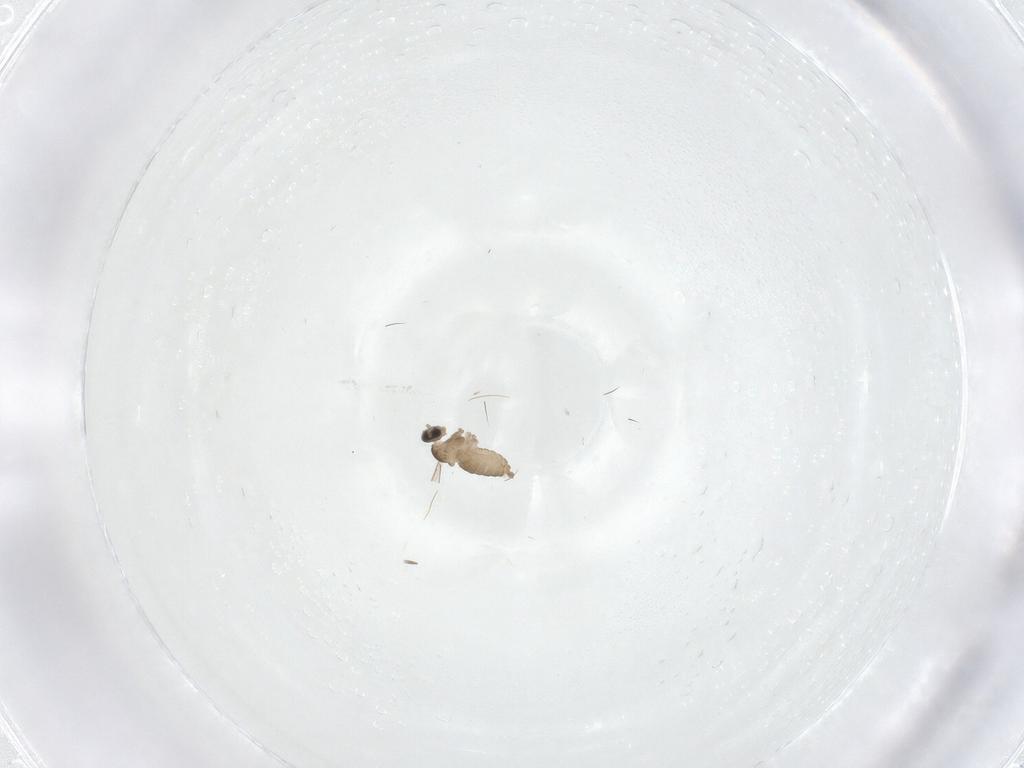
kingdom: Animalia
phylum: Arthropoda
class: Insecta
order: Diptera
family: Cecidomyiidae
